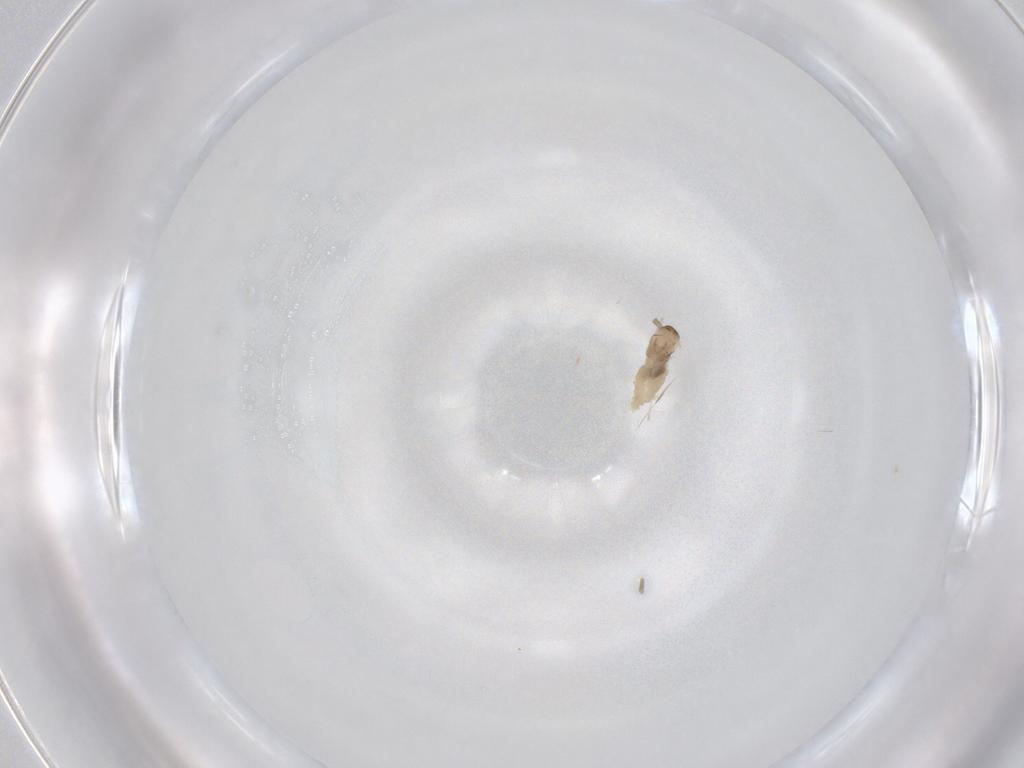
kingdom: Animalia
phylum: Arthropoda
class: Insecta
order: Diptera
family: Cecidomyiidae
